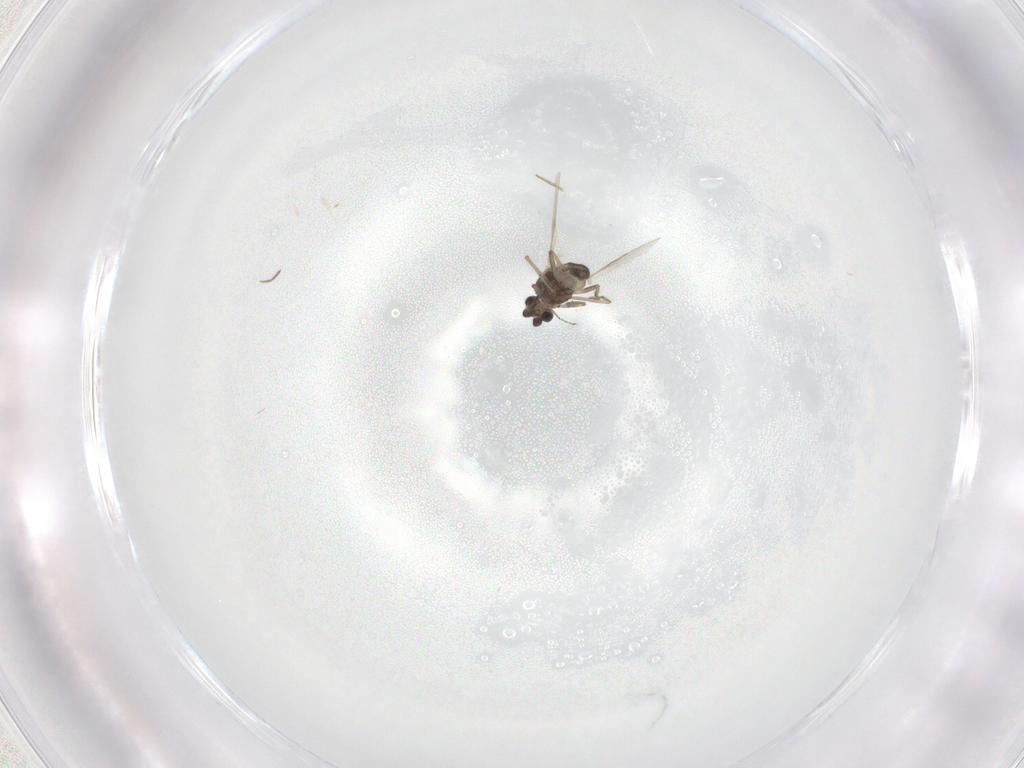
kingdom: Animalia
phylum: Arthropoda
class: Insecta
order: Diptera
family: Ceratopogonidae
